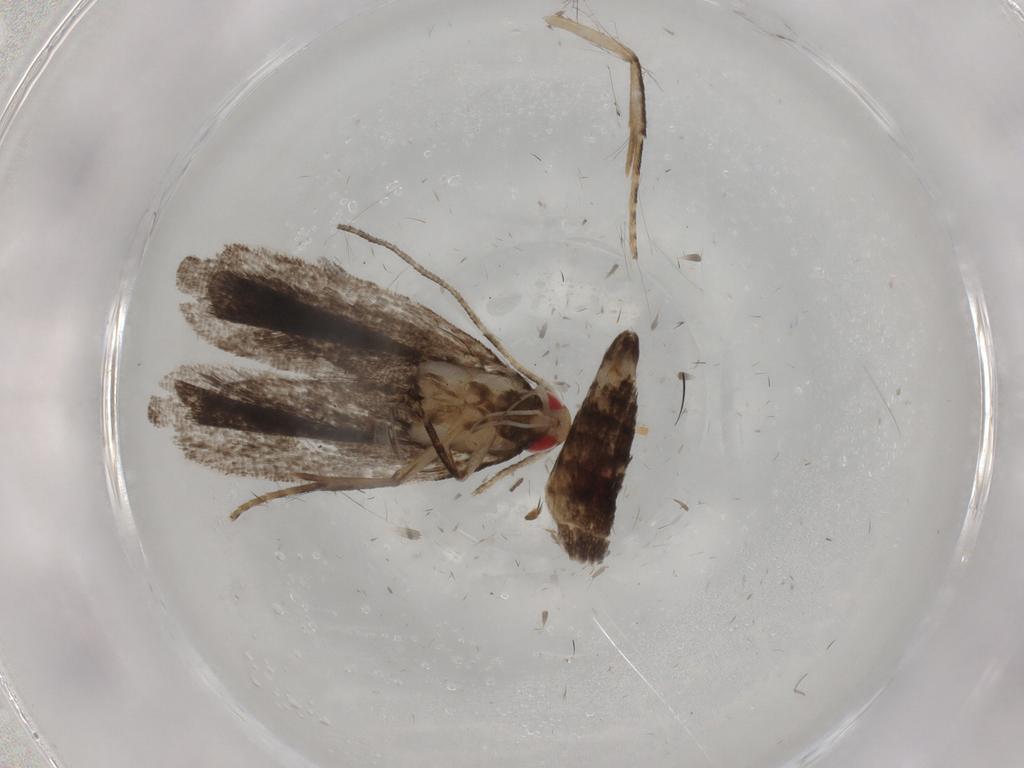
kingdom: Animalia
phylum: Arthropoda
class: Insecta
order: Lepidoptera
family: Gelechiidae
